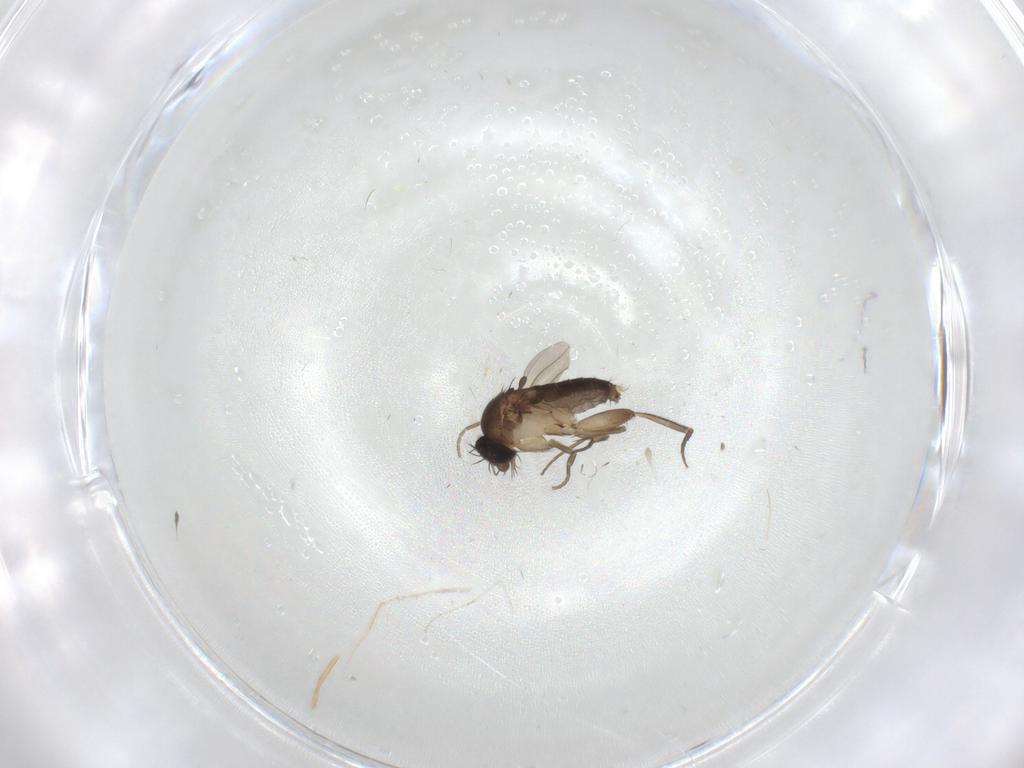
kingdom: Animalia
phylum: Arthropoda
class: Insecta
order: Diptera
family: Phoridae
